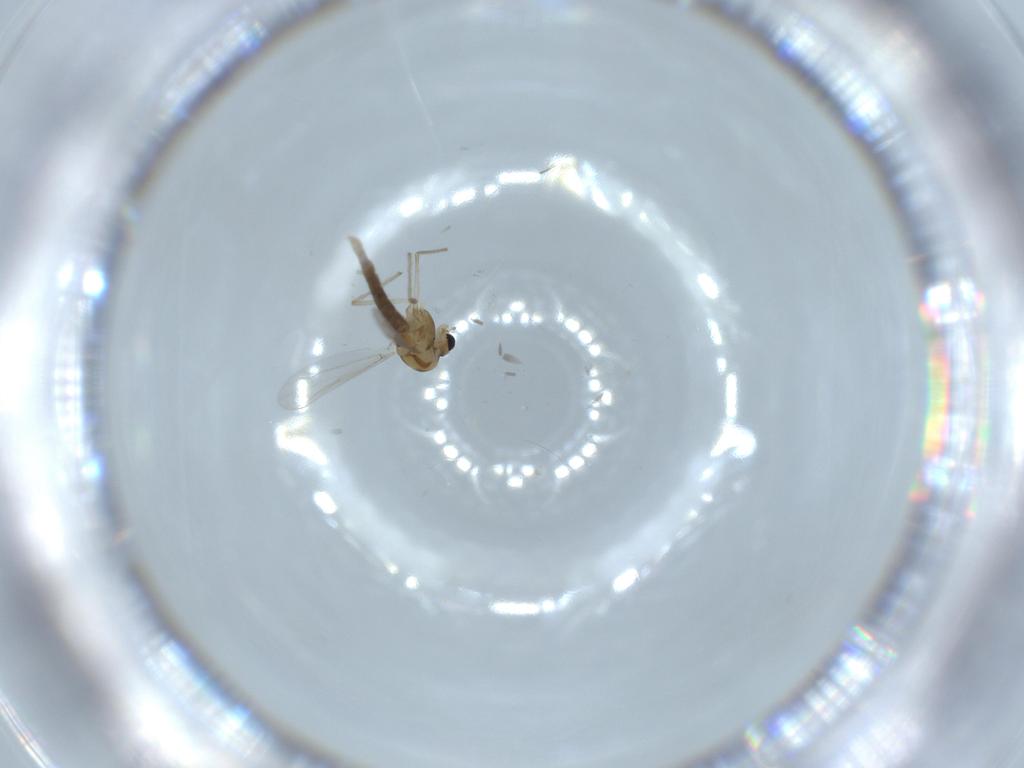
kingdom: Animalia
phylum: Arthropoda
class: Insecta
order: Diptera
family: Chironomidae
